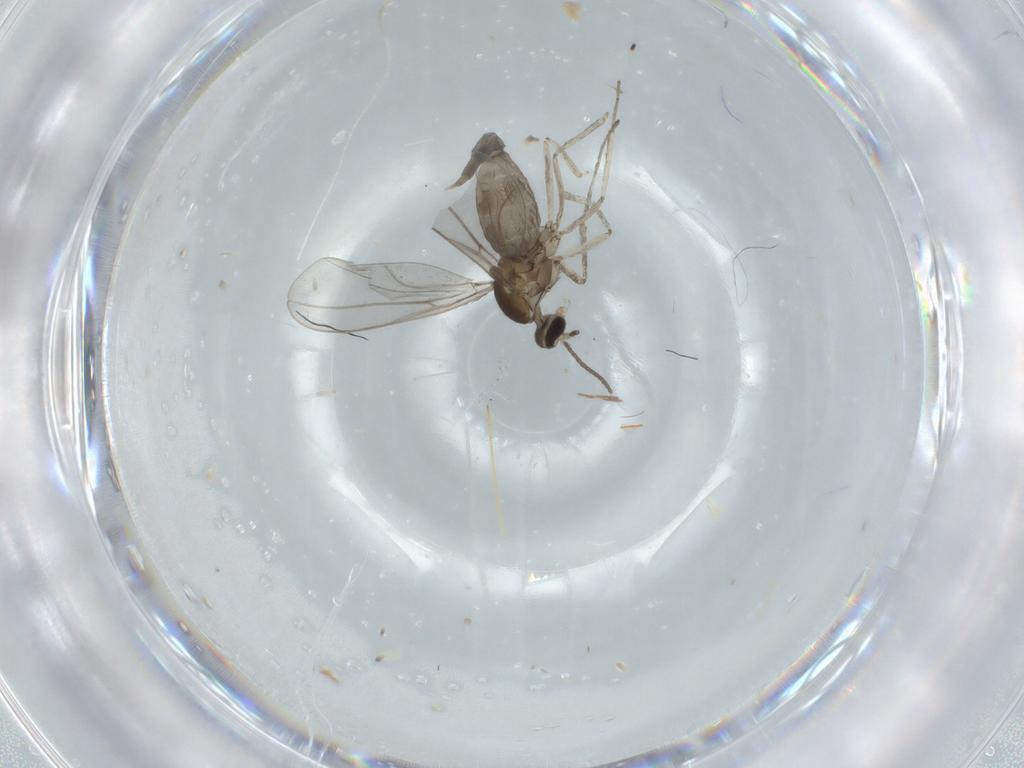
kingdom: Animalia
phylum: Arthropoda
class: Insecta
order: Diptera
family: Cecidomyiidae
